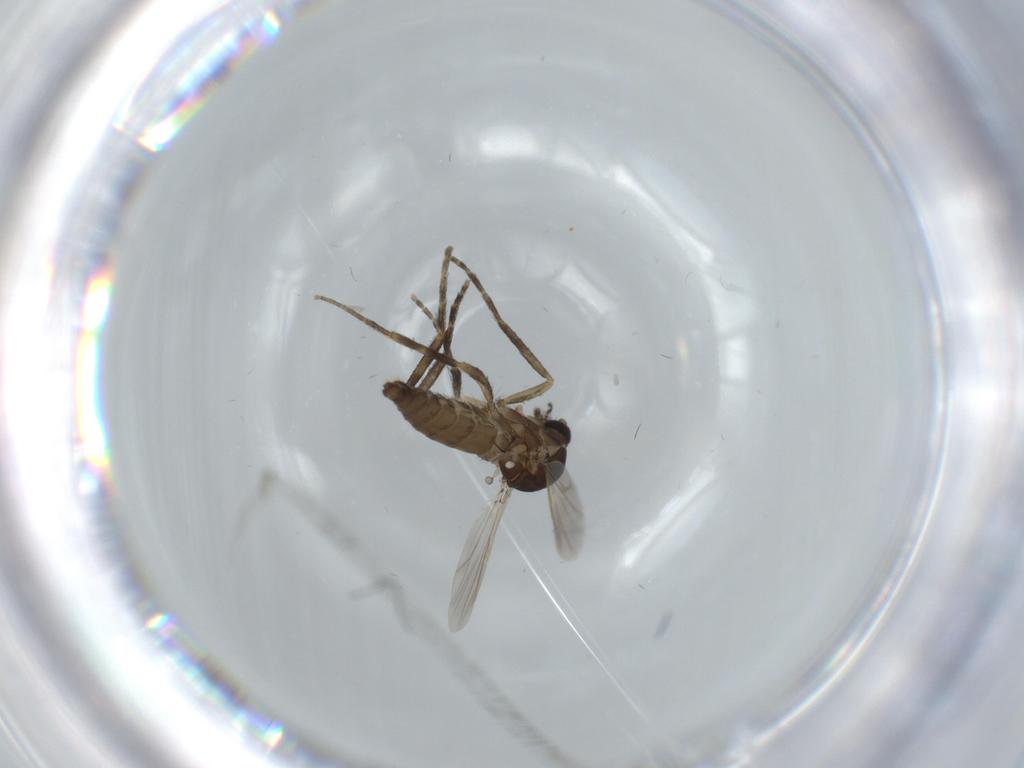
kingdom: Animalia
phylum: Arthropoda
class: Insecta
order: Diptera
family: Ceratopogonidae
